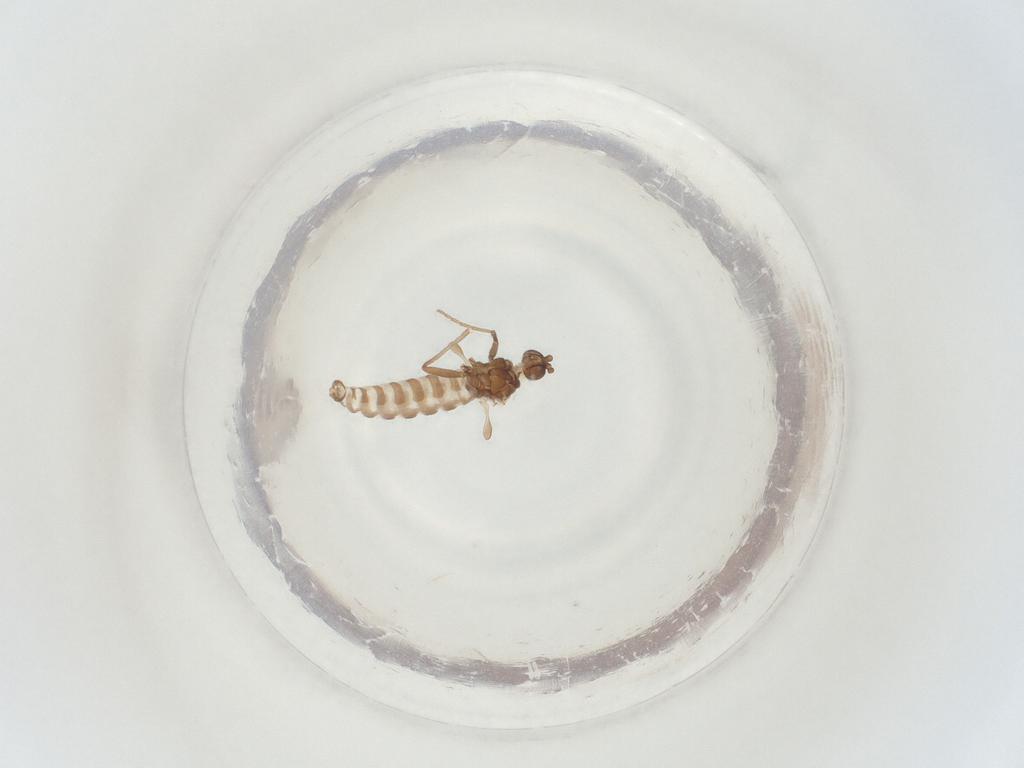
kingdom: Animalia
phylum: Arthropoda
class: Insecta
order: Diptera
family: Sciaridae
